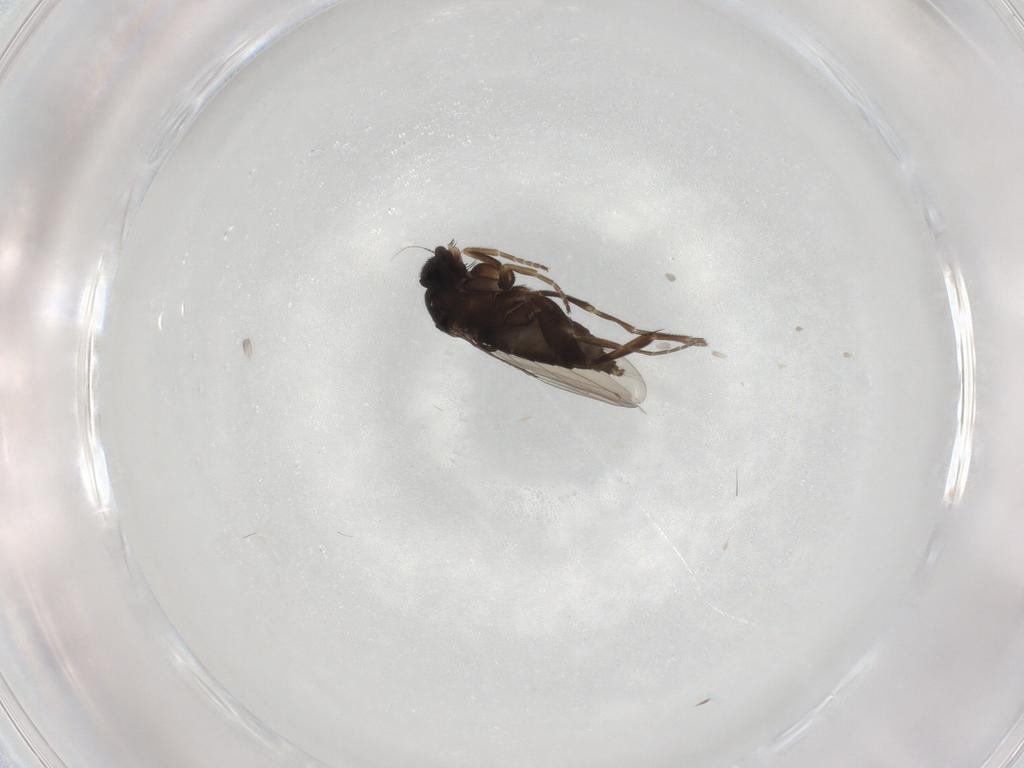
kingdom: Animalia
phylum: Arthropoda
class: Insecta
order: Diptera
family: Phoridae
